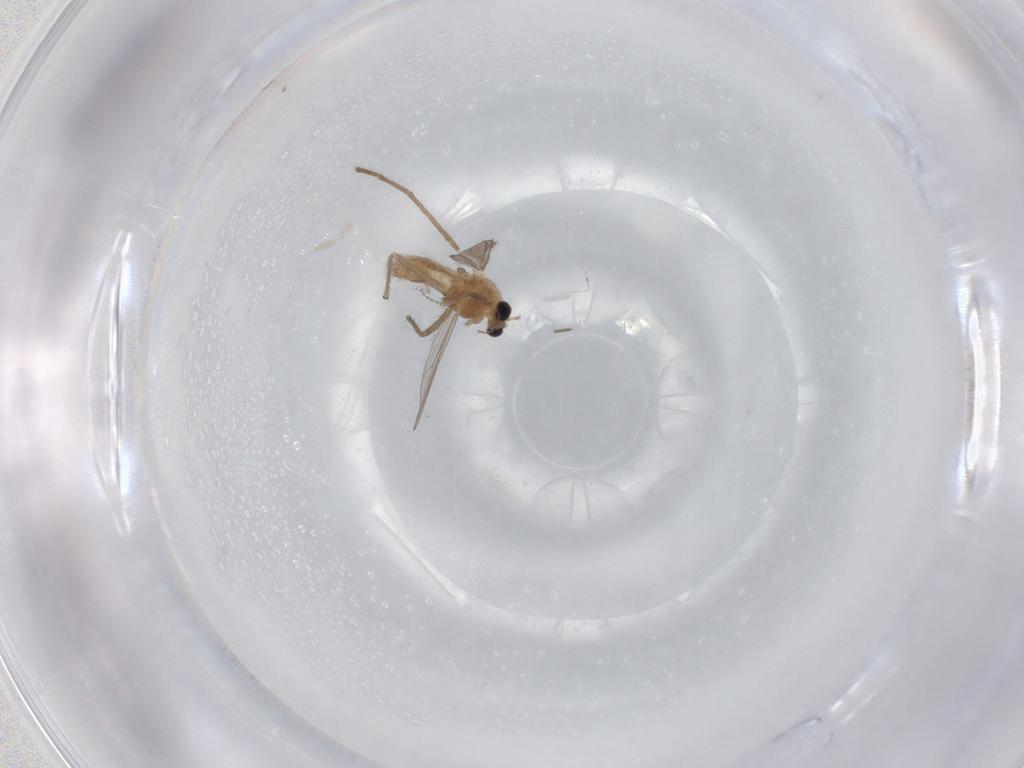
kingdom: Animalia
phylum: Arthropoda
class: Insecta
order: Diptera
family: Chironomidae
